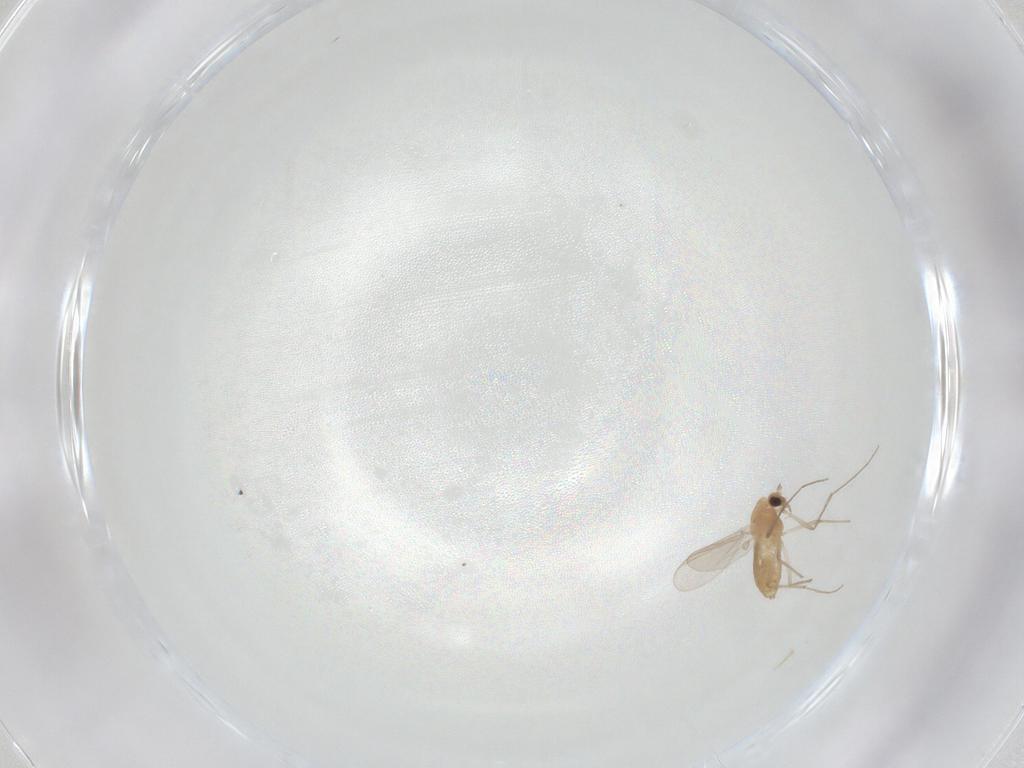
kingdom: Animalia
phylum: Arthropoda
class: Insecta
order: Diptera
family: Chironomidae
